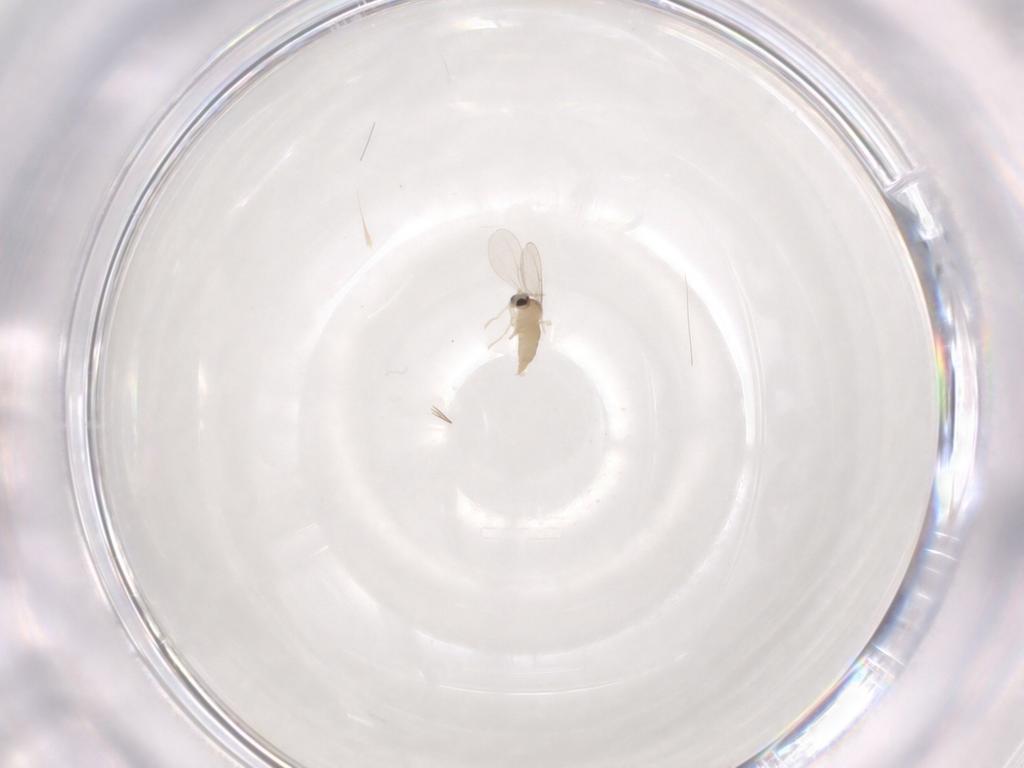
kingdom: Animalia
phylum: Arthropoda
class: Insecta
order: Diptera
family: Cecidomyiidae
